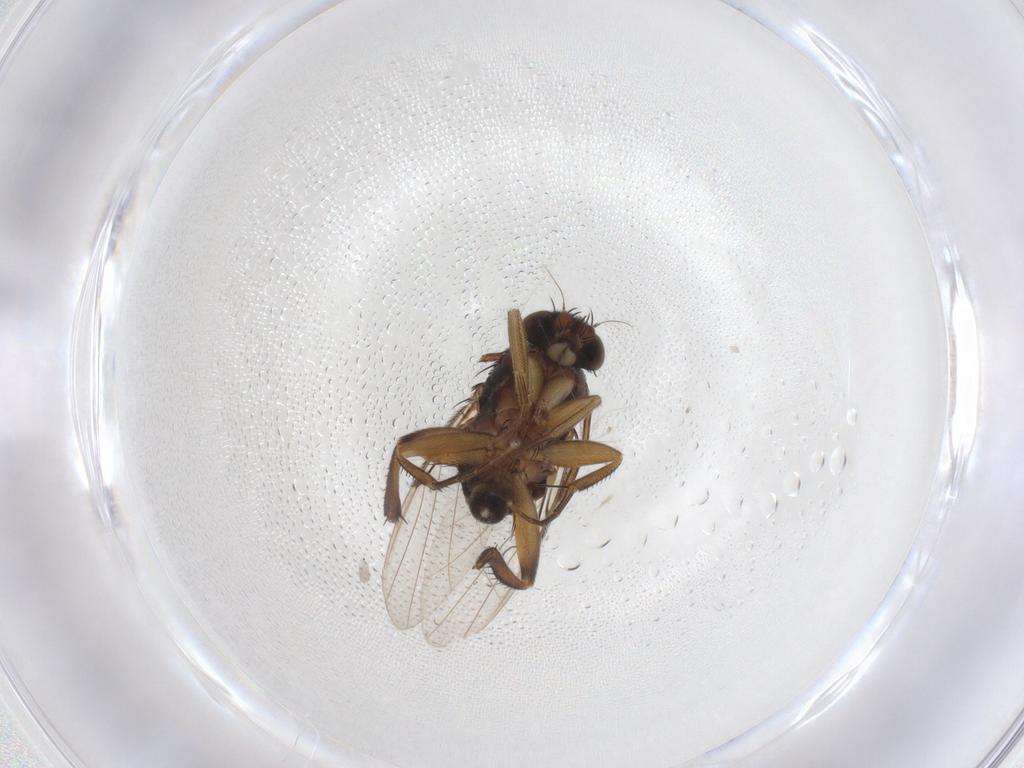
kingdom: Animalia
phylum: Arthropoda
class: Insecta
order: Diptera
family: Phoridae
